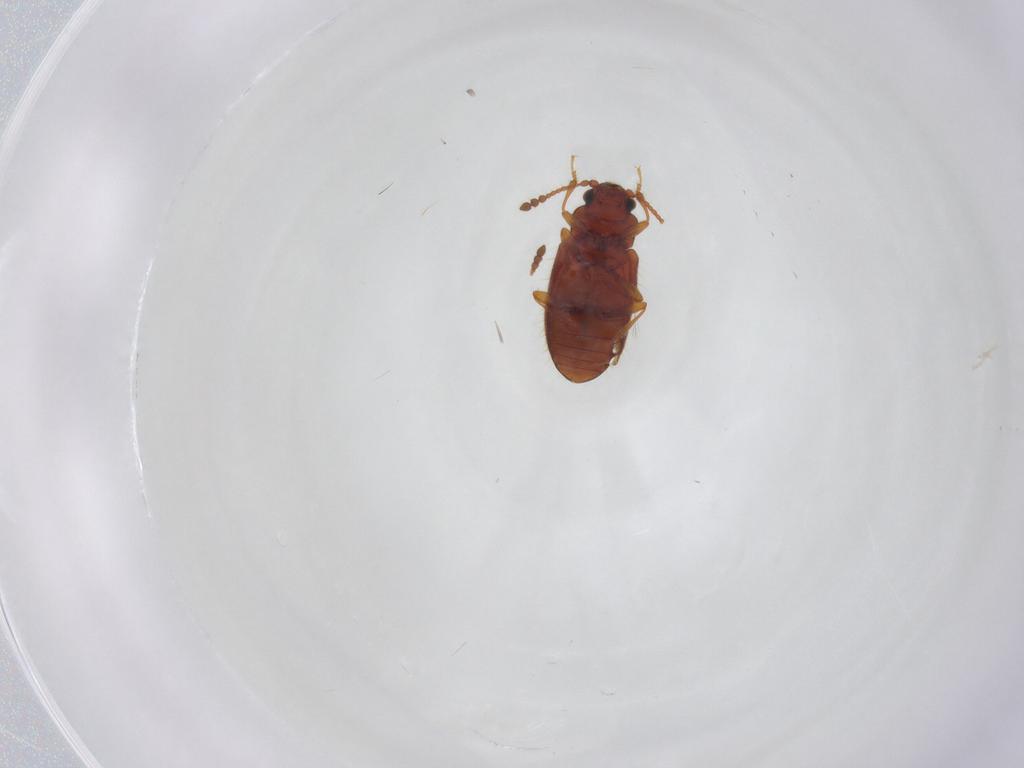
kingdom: Animalia
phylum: Arthropoda
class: Insecta
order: Coleoptera
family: Cryptophagidae
